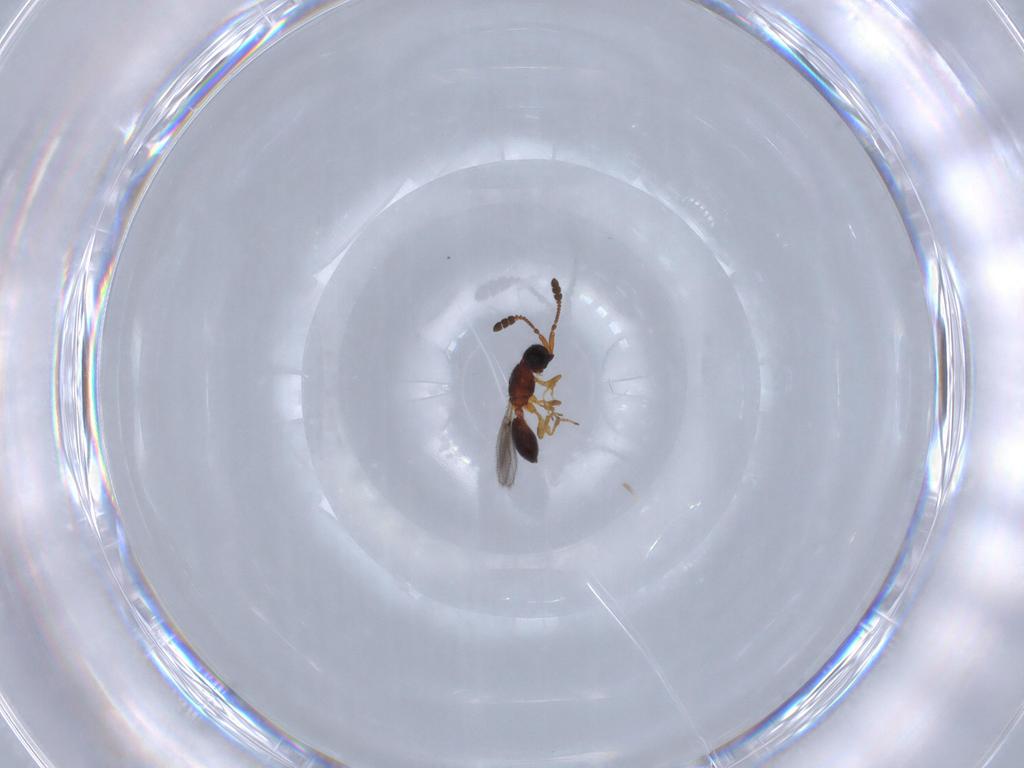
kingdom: Animalia
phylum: Arthropoda
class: Insecta
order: Hymenoptera
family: Diapriidae
